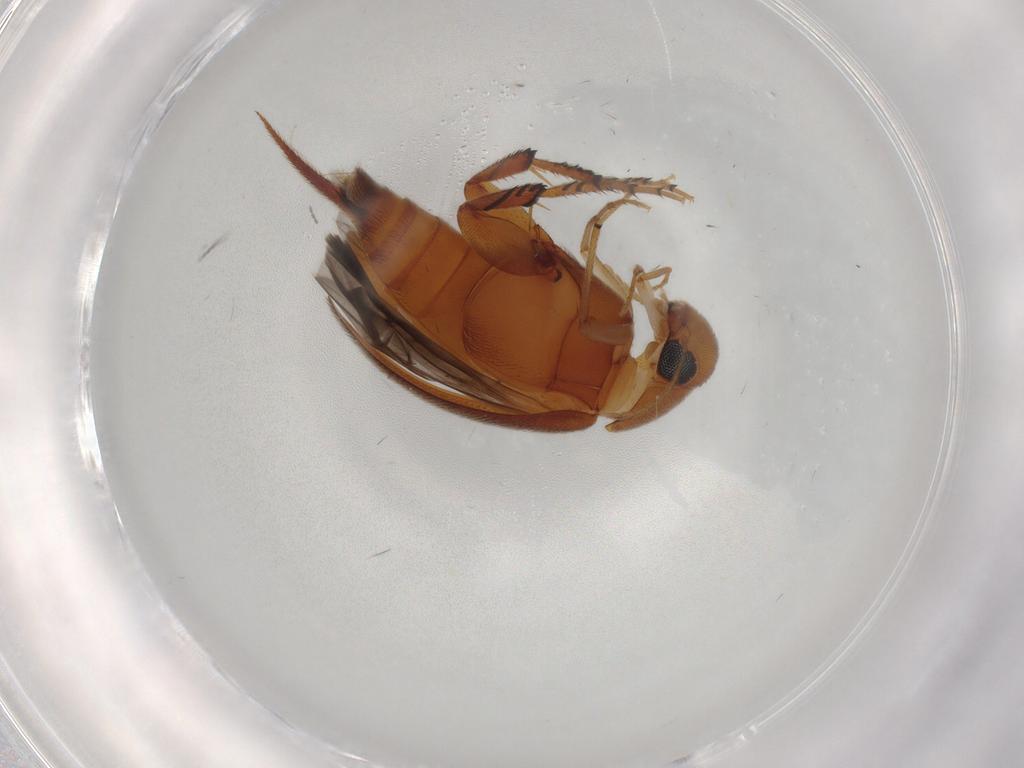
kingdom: Animalia
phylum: Arthropoda
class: Insecta
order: Coleoptera
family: Mordellidae
